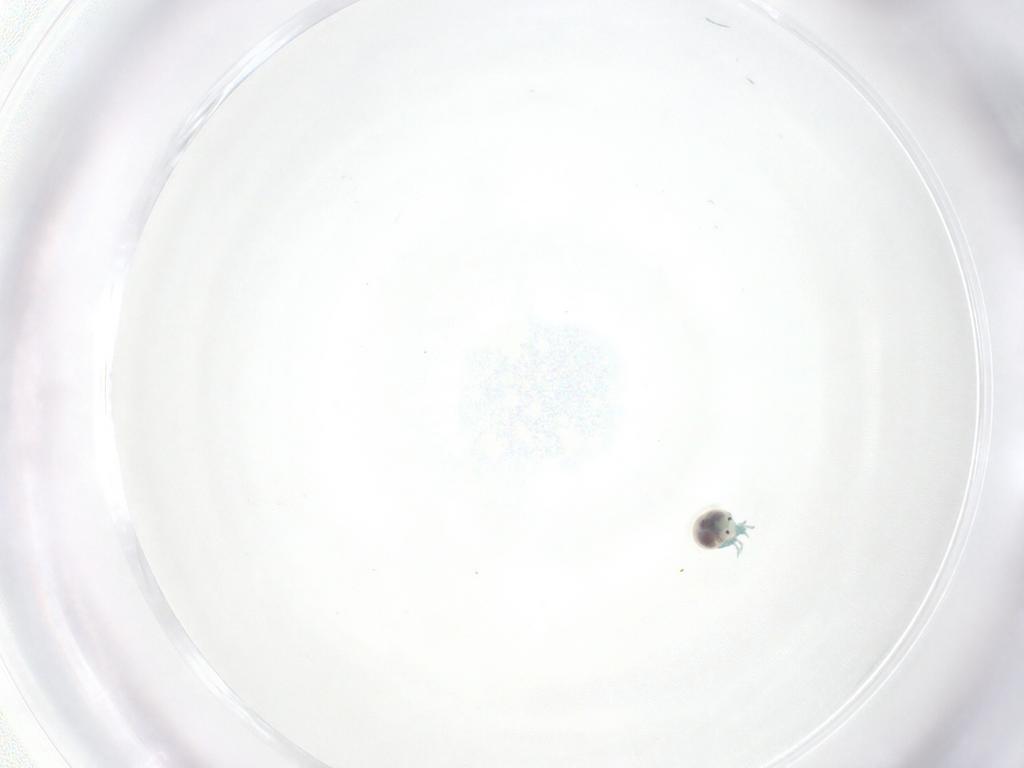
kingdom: Animalia
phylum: Arthropoda
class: Arachnida
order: Trombidiformes
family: Arrenuridae
